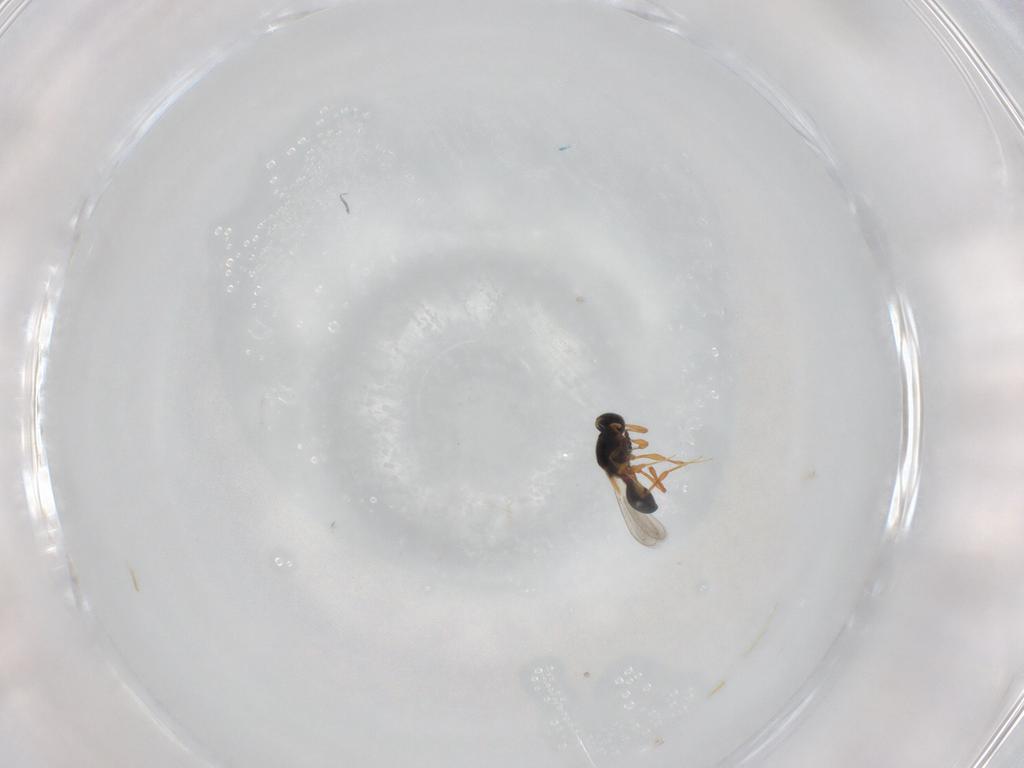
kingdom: Animalia
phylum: Arthropoda
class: Insecta
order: Hymenoptera
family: Platygastridae
